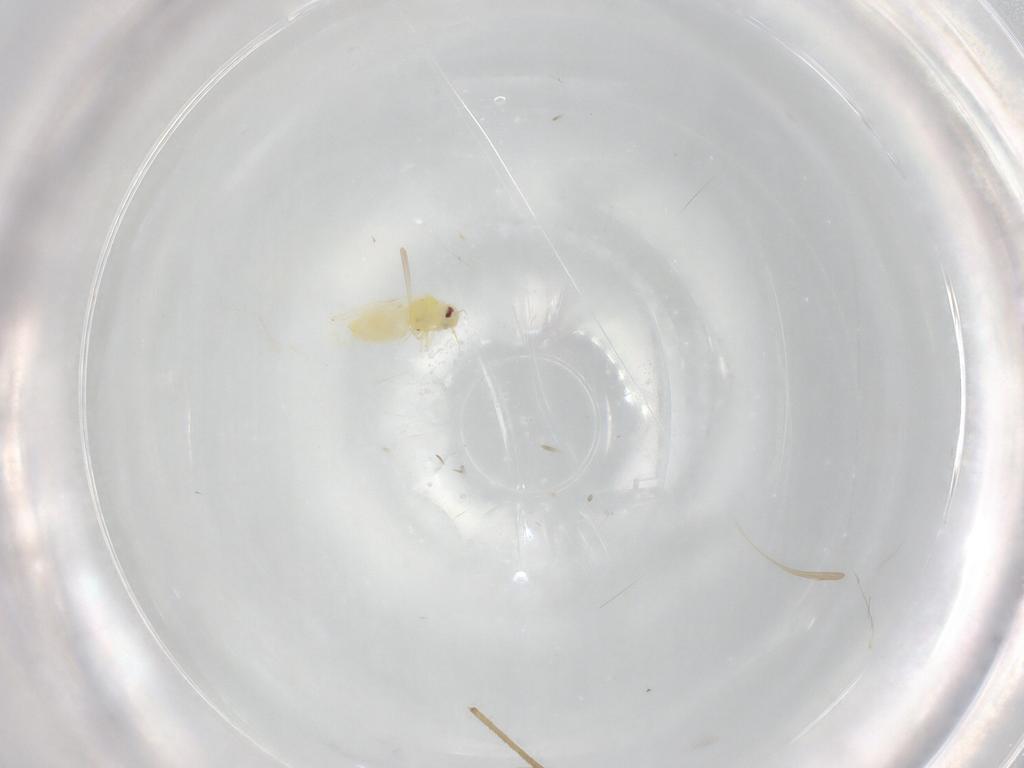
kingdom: Animalia
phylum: Arthropoda
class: Insecta
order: Hemiptera
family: Aleyrodidae
